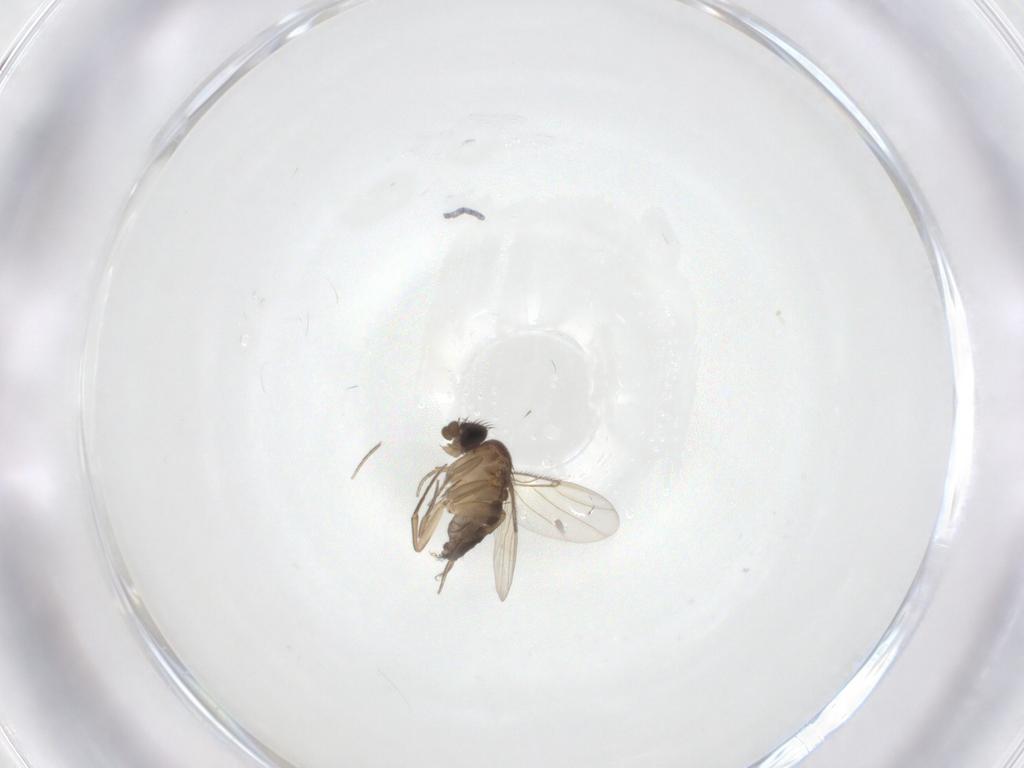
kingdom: Animalia
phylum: Arthropoda
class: Insecta
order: Diptera
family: Phoridae
